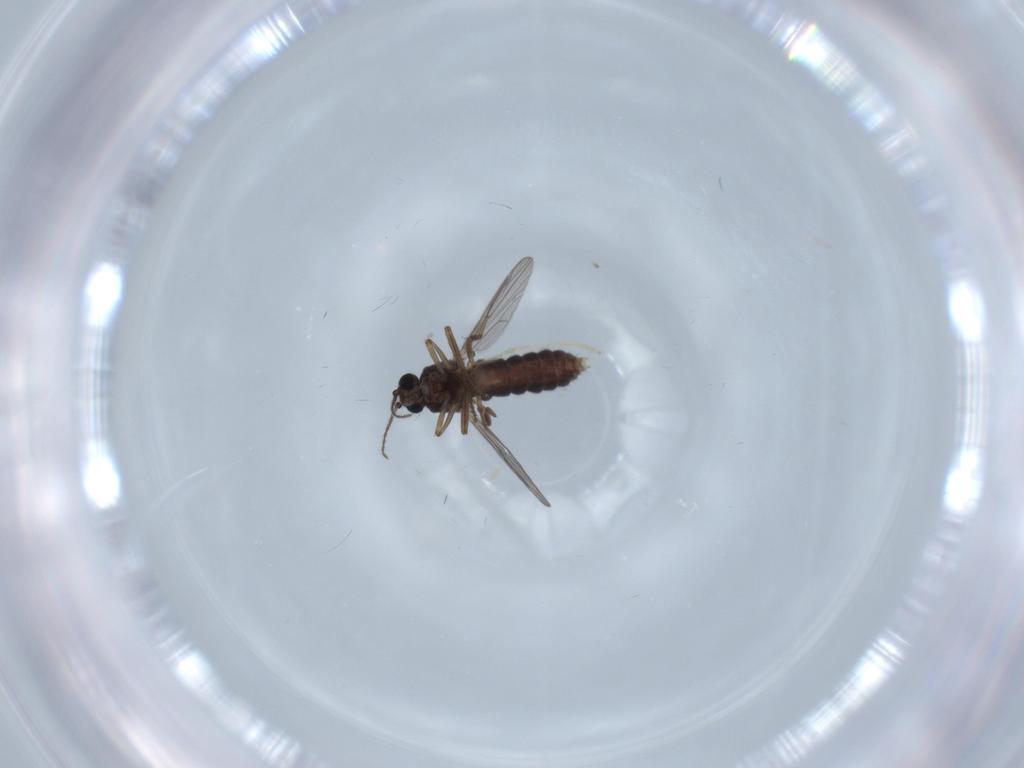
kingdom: Animalia
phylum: Arthropoda
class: Insecta
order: Diptera
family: Ceratopogonidae
